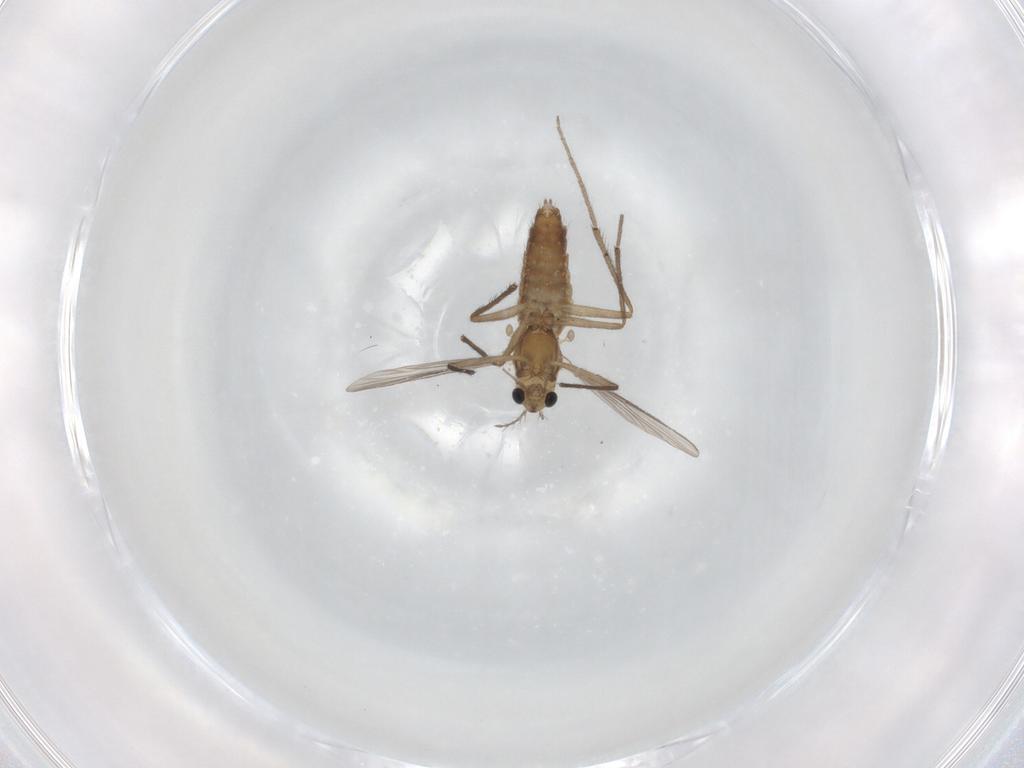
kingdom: Animalia
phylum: Arthropoda
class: Insecta
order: Diptera
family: Chironomidae
